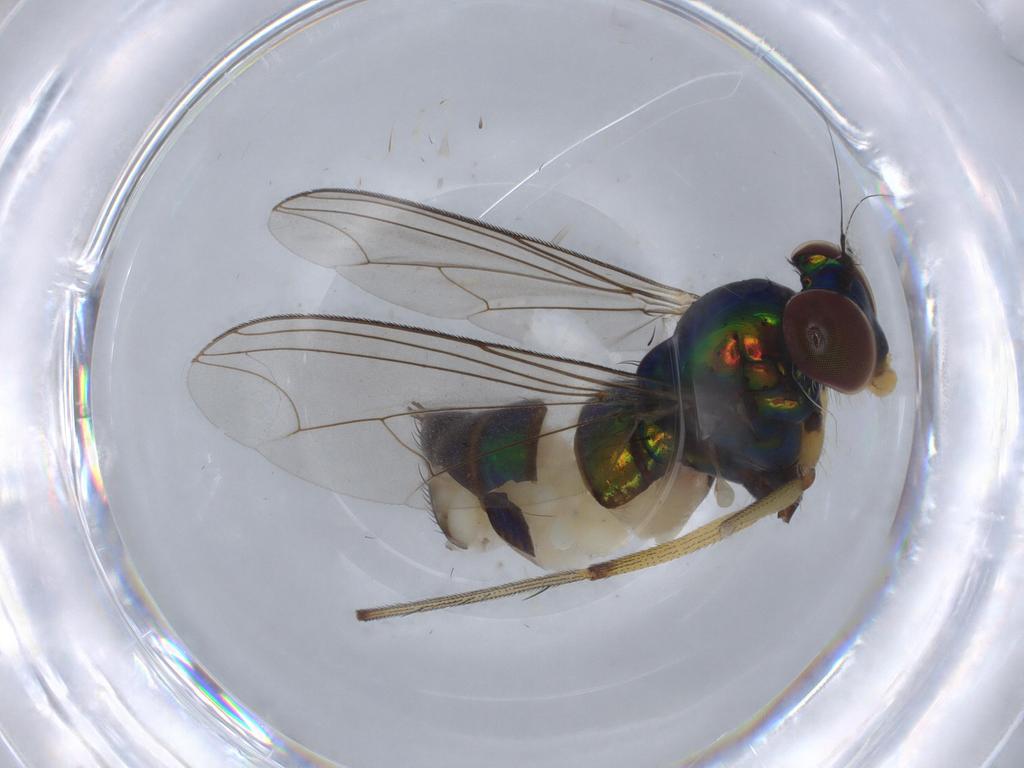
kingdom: Animalia
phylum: Arthropoda
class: Insecta
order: Diptera
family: Dolichopodidae
